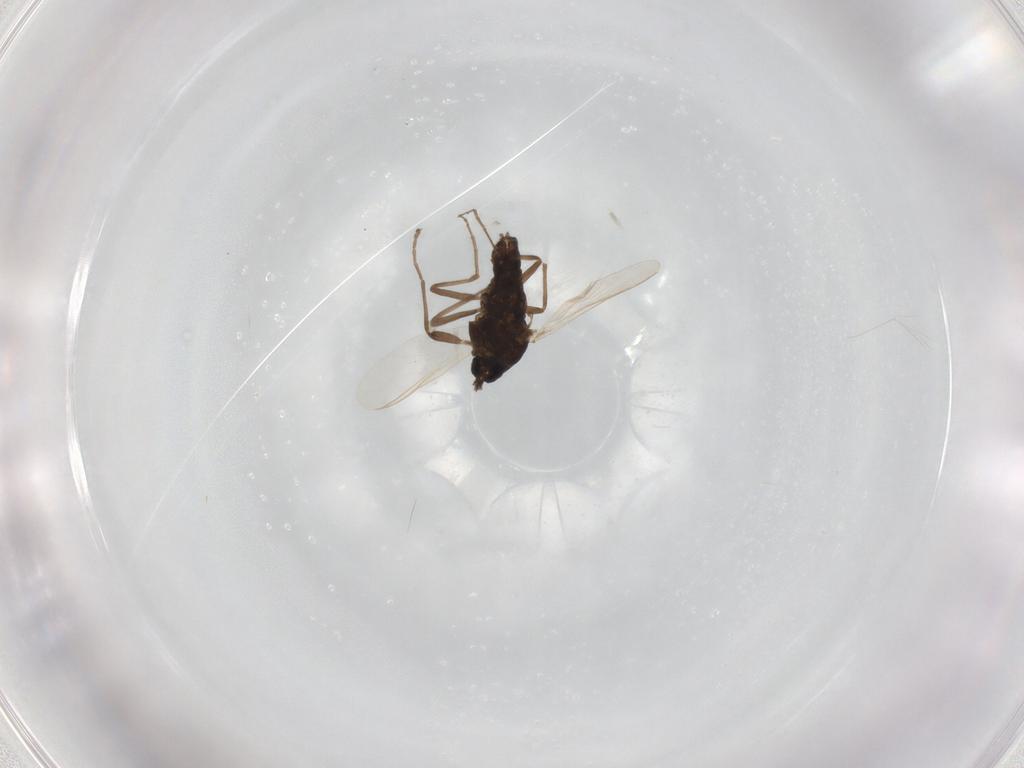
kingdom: Animalia
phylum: Arthropoda
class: Insecta
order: Diptera
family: Chironomidae
